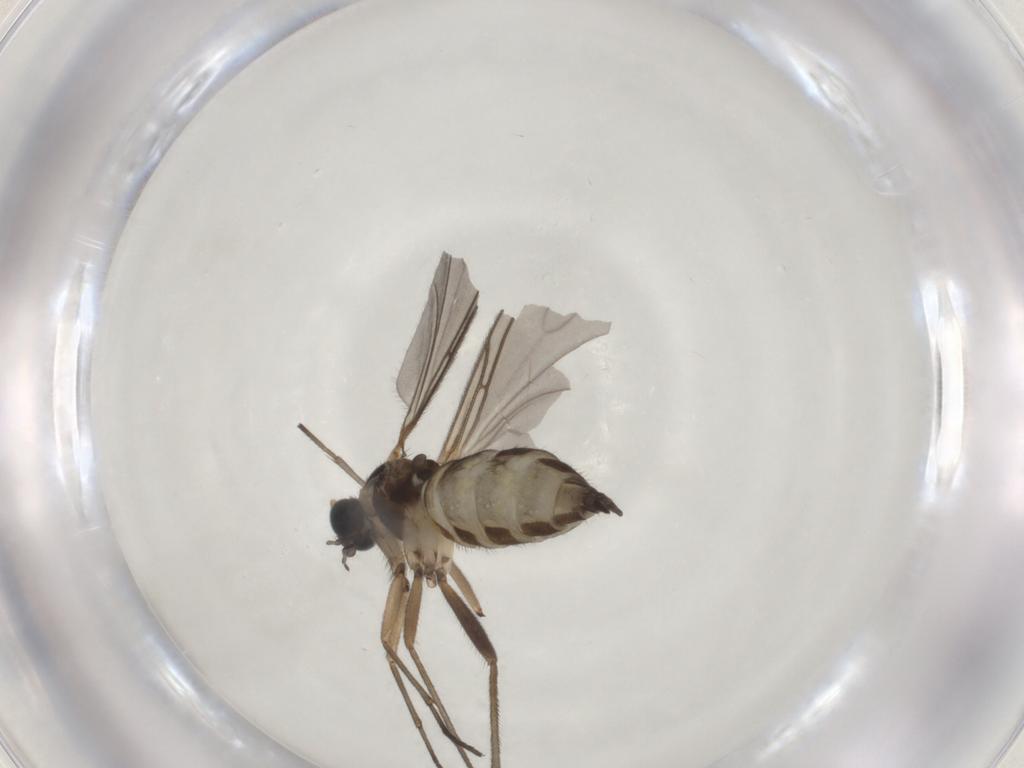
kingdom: Animalia
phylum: Arthropoda
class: Insecta
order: Diptera
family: Sciaridae
